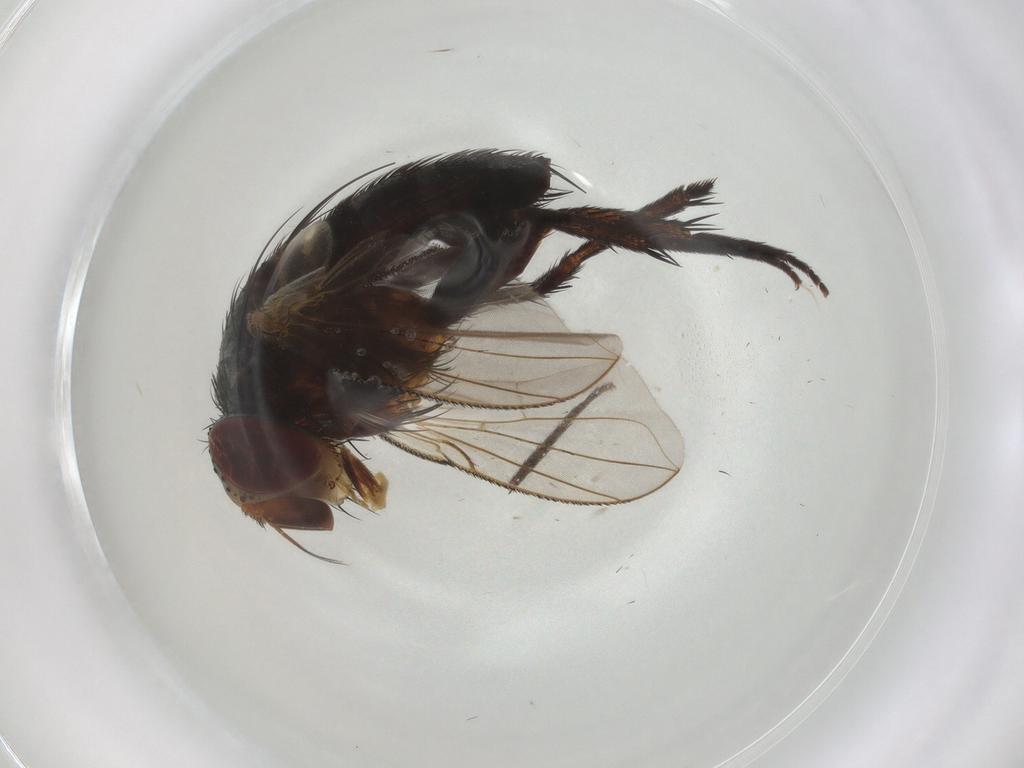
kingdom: Animalia
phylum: Arthropoda
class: Insecta
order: Diptera
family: Tachinidae
